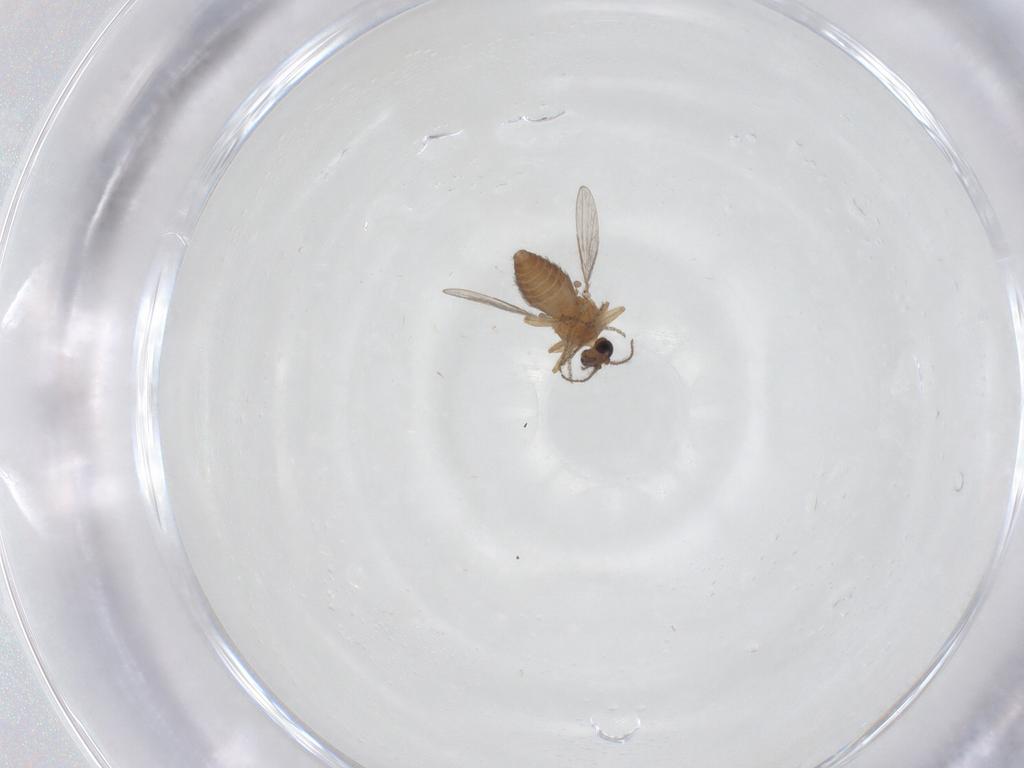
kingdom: Animalia
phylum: Arthropoda
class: Insecta
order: Diptera
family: Ceratopogonidae
